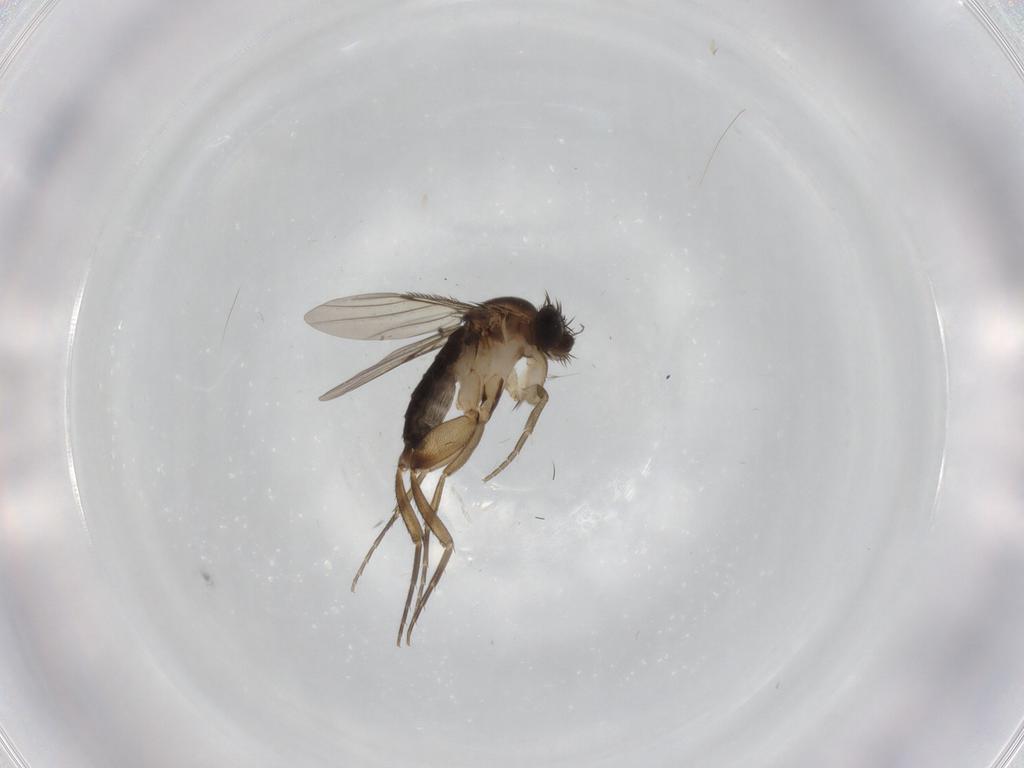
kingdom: Animalia
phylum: Arthropoda
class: Insecta
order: Diptera
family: Phoridae
